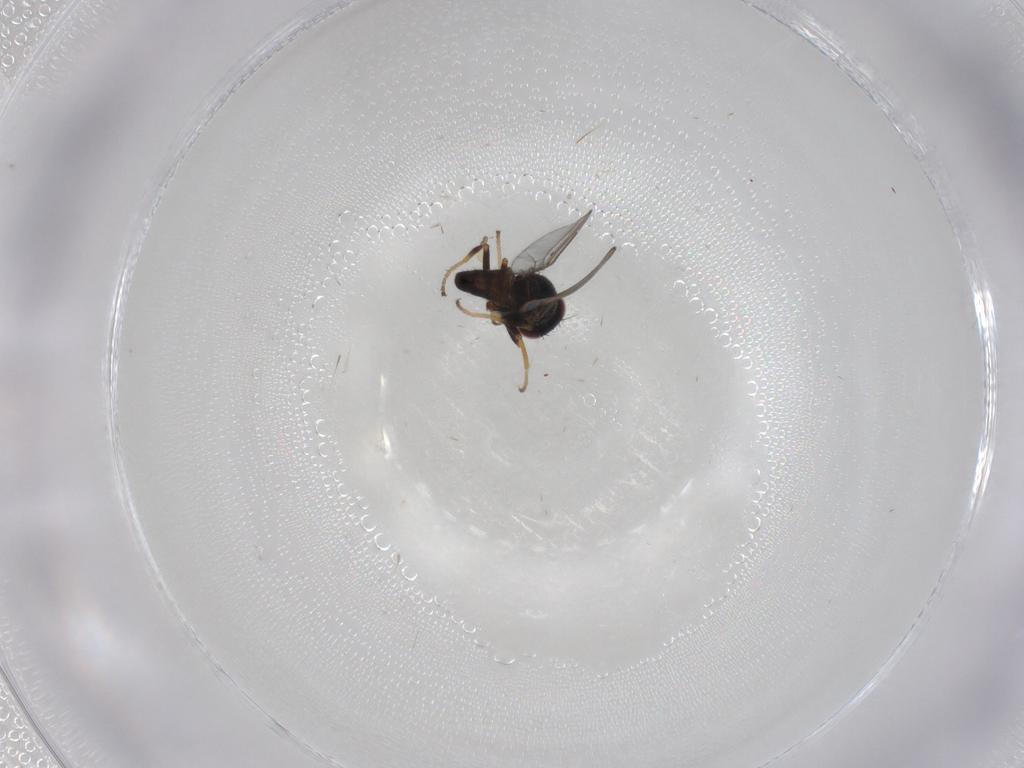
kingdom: Animalia
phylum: Arthropoda
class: Insecta
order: Diptera
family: Chloropidae
